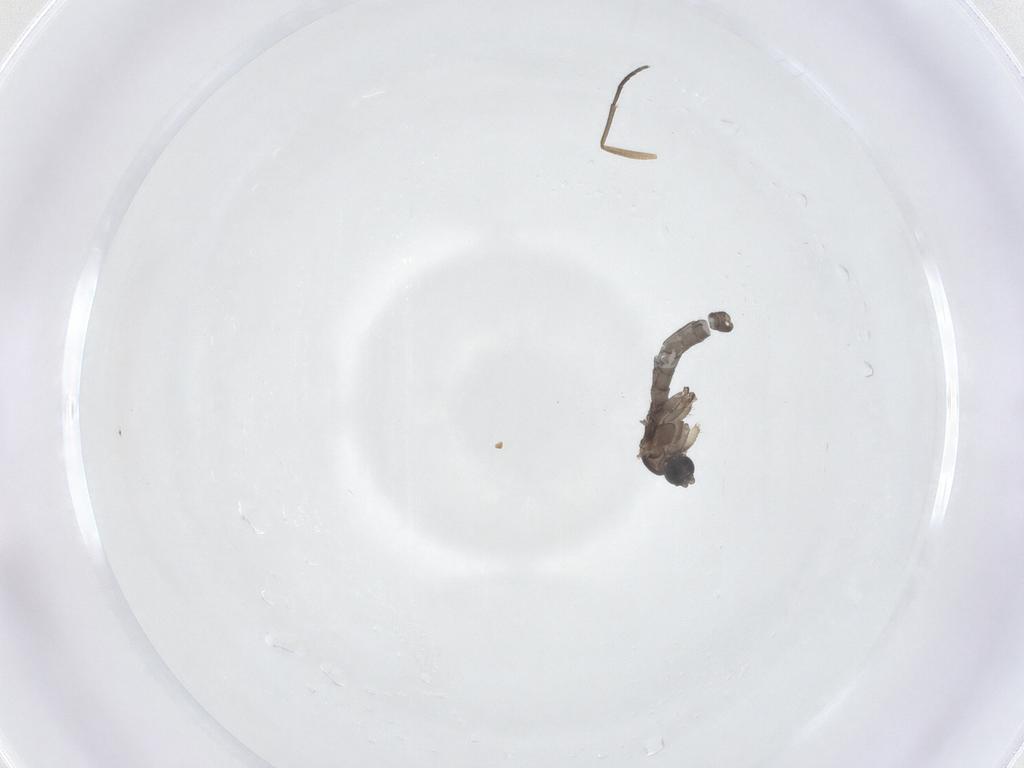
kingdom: Animalia
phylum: Arthropoda
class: Insecta
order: Diptera
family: Sciaridae
